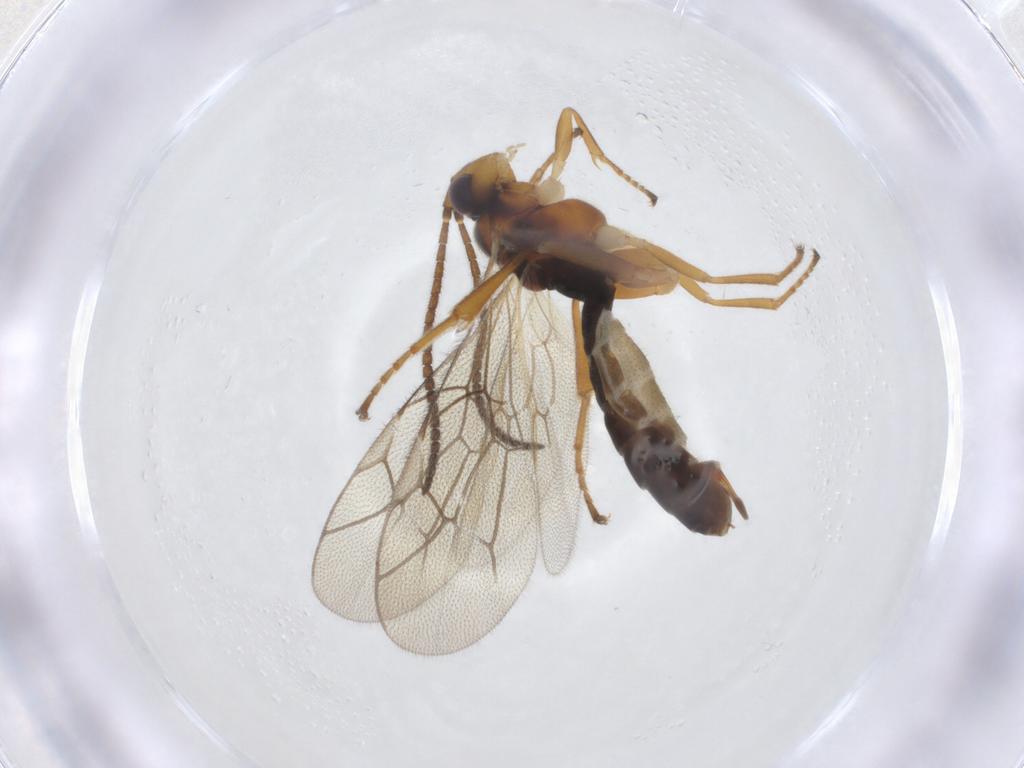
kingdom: Animalia
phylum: Arthropoda
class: Insecta
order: Hymenoptera
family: Ichneumonidae
